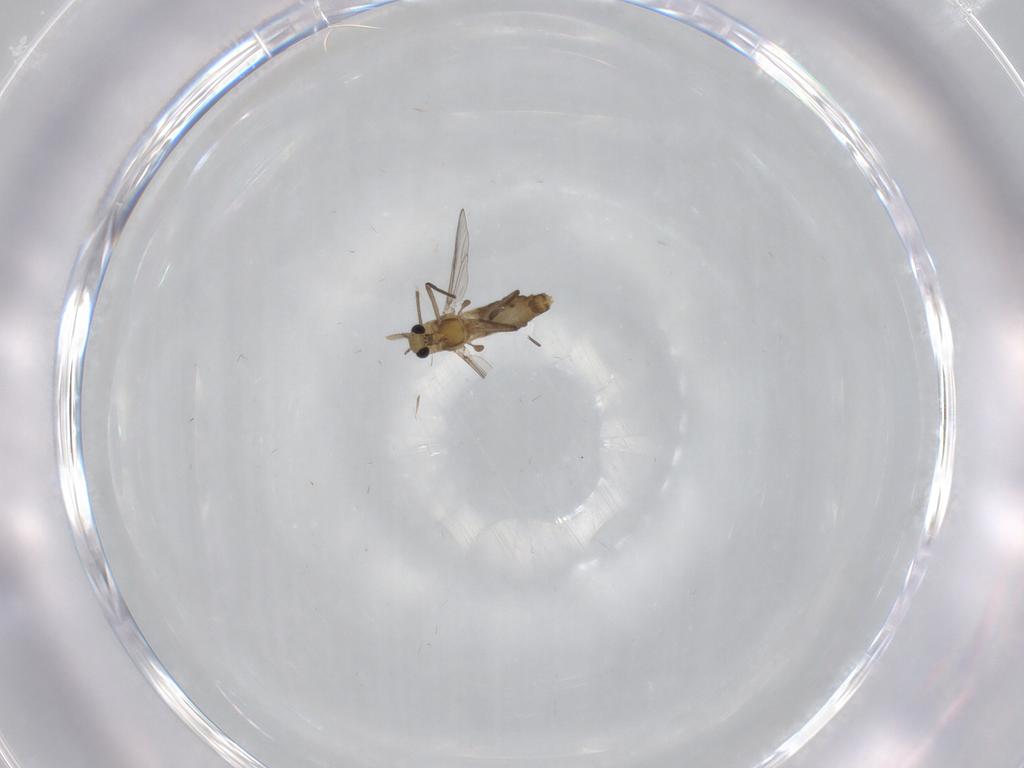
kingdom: Animalia
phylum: Arthropoda
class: Insecta
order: Diptera
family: Chironomidae
